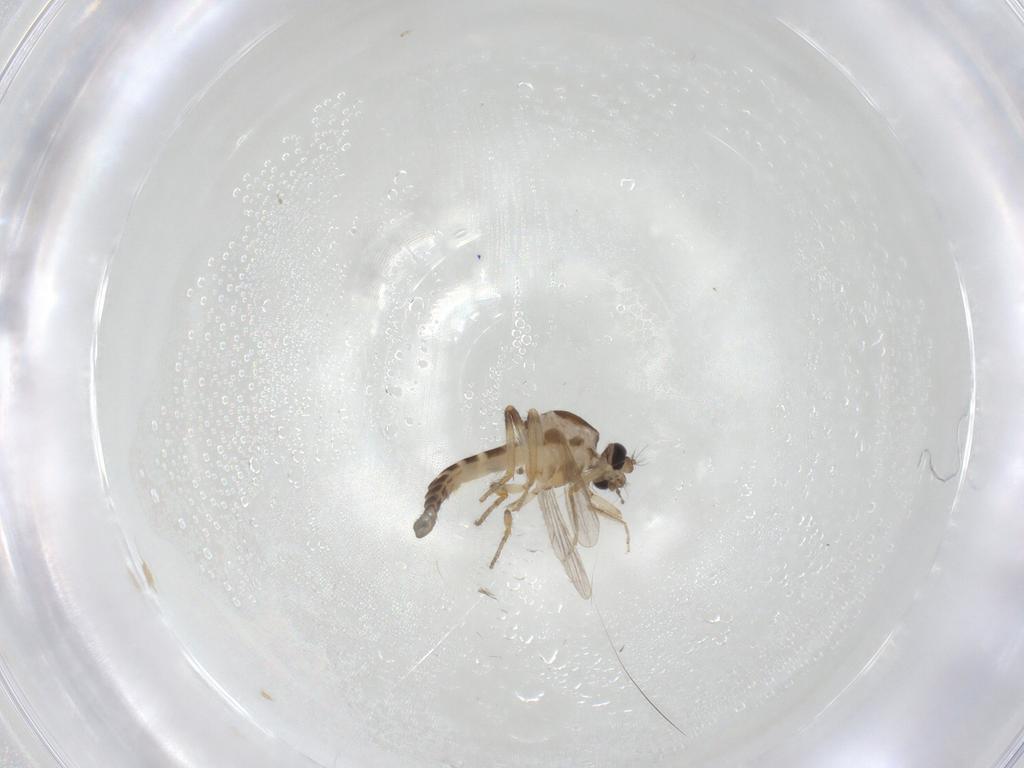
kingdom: Animalia
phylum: Arthropoda
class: Insecta
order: Diptera
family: Ceratopogonidae
